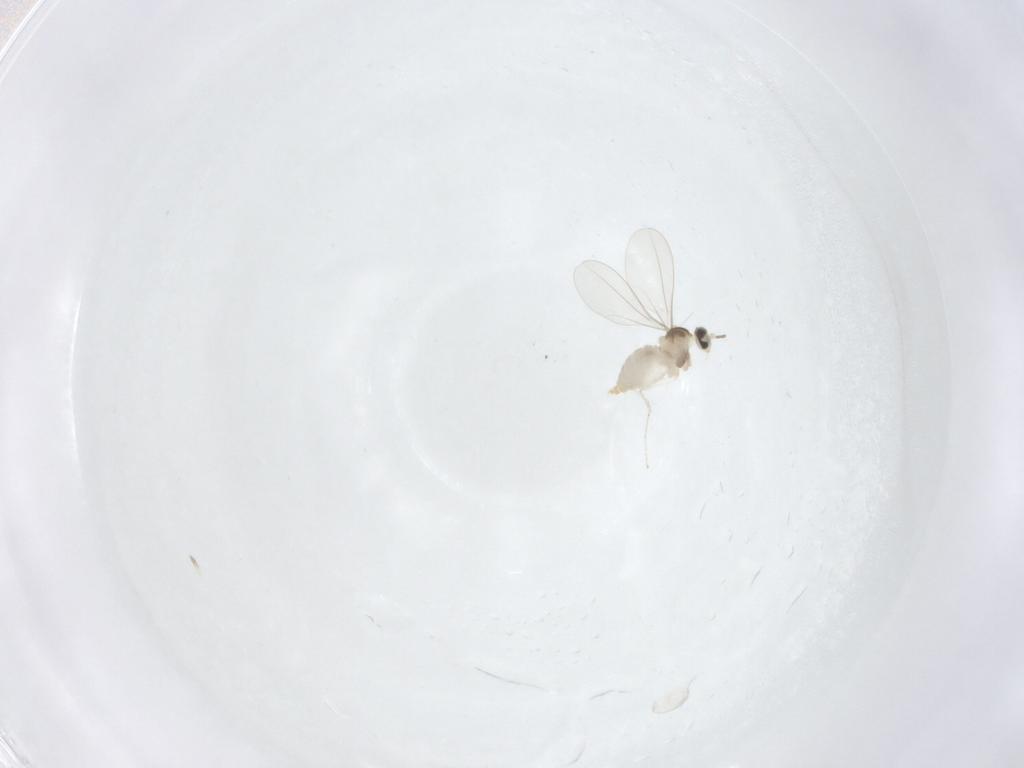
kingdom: Animalia
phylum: Arthropoda
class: Insecta
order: Diptera
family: Cecidomyiidae
